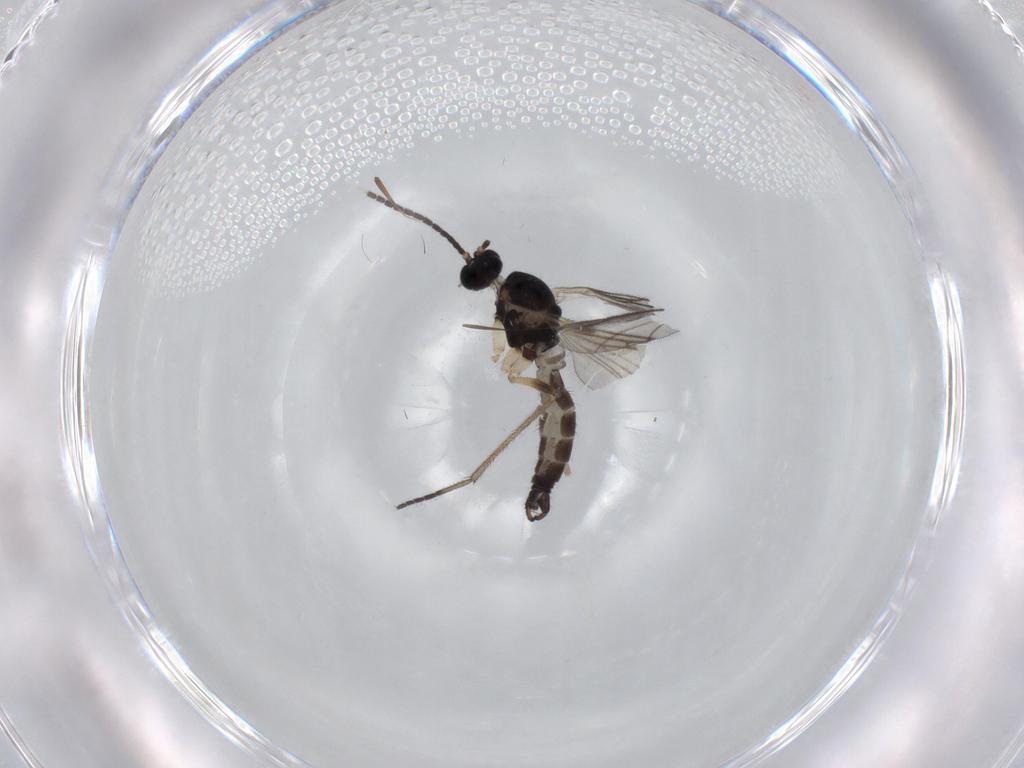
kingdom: Animalia
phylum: Arthropoda
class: Insecta
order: Diptera
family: Sciaridae
